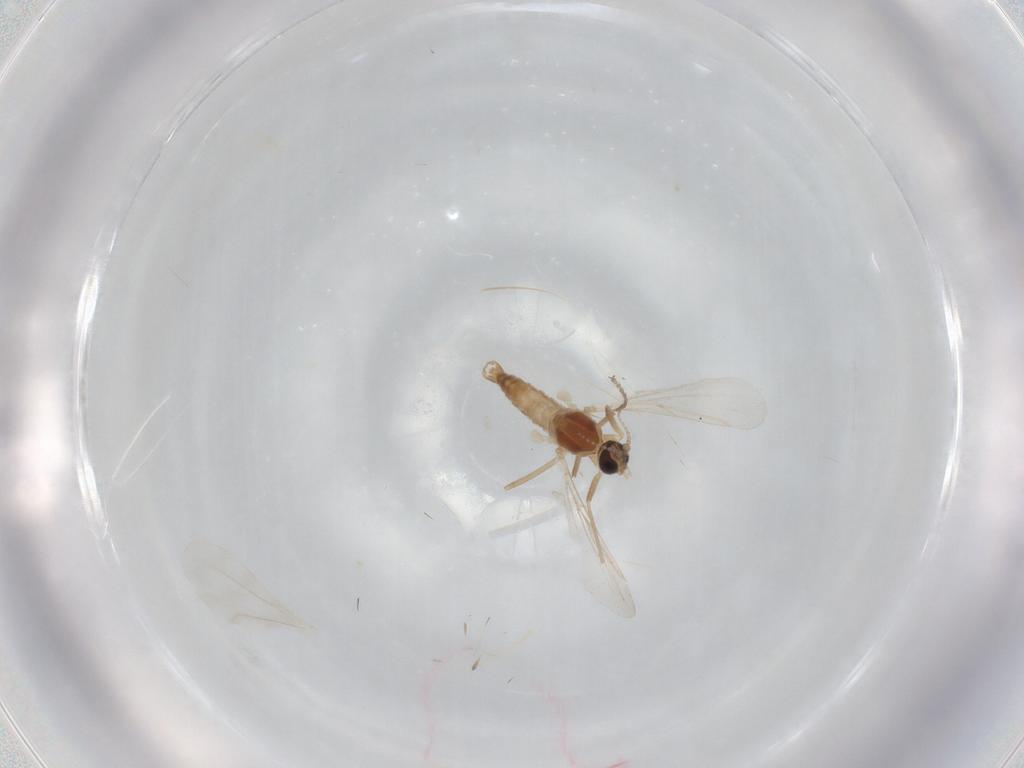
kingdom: Animalia
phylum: Arthropoda
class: Insecta
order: Diptera
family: Cecidomyiidae
